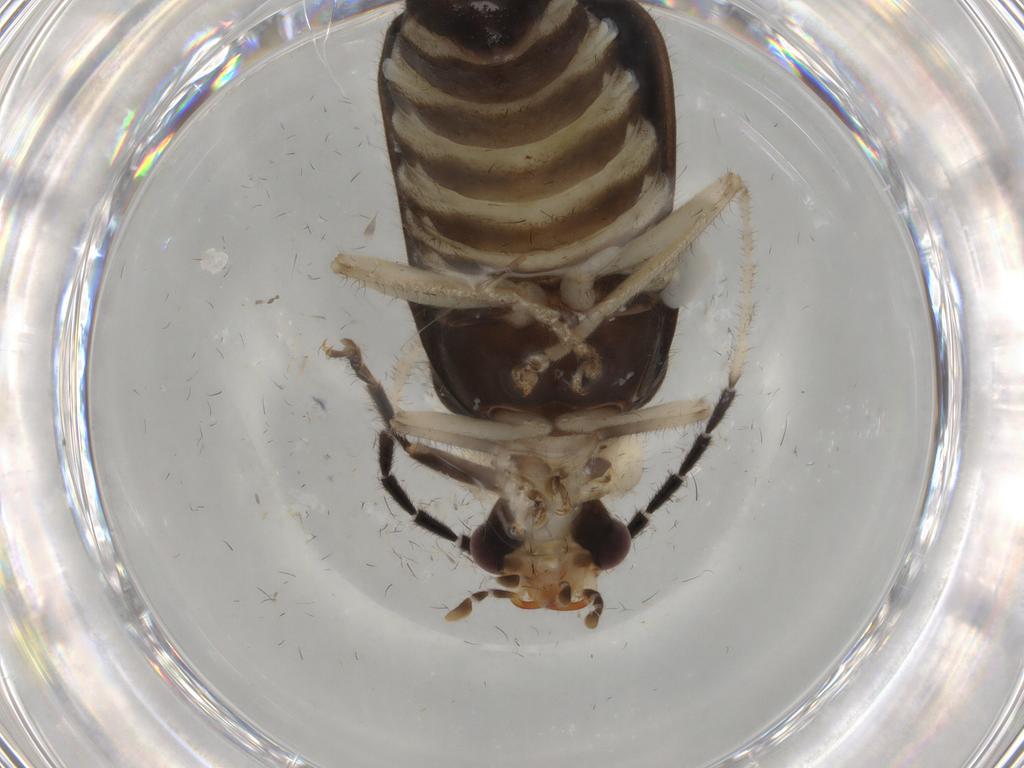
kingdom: Animalia
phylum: Arthropoda
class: Insecta
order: Coleoptera
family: Cantharidae
